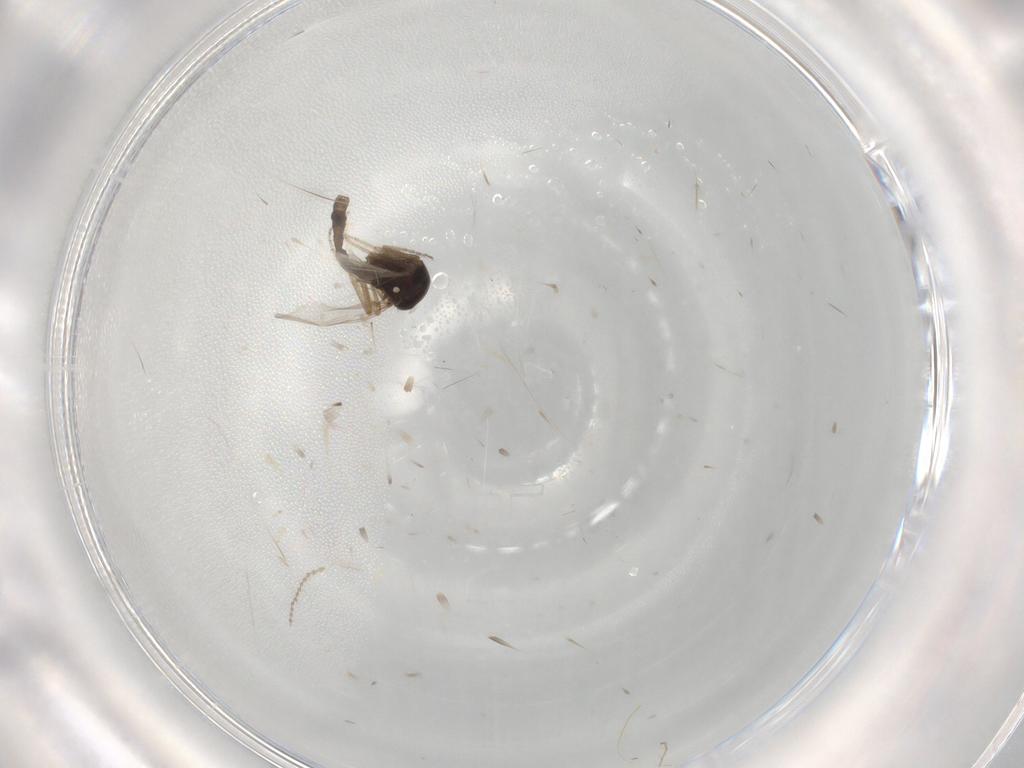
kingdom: Animalia
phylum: Arthropoda
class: Insecta
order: Diptera
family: Ceratopogonidae
